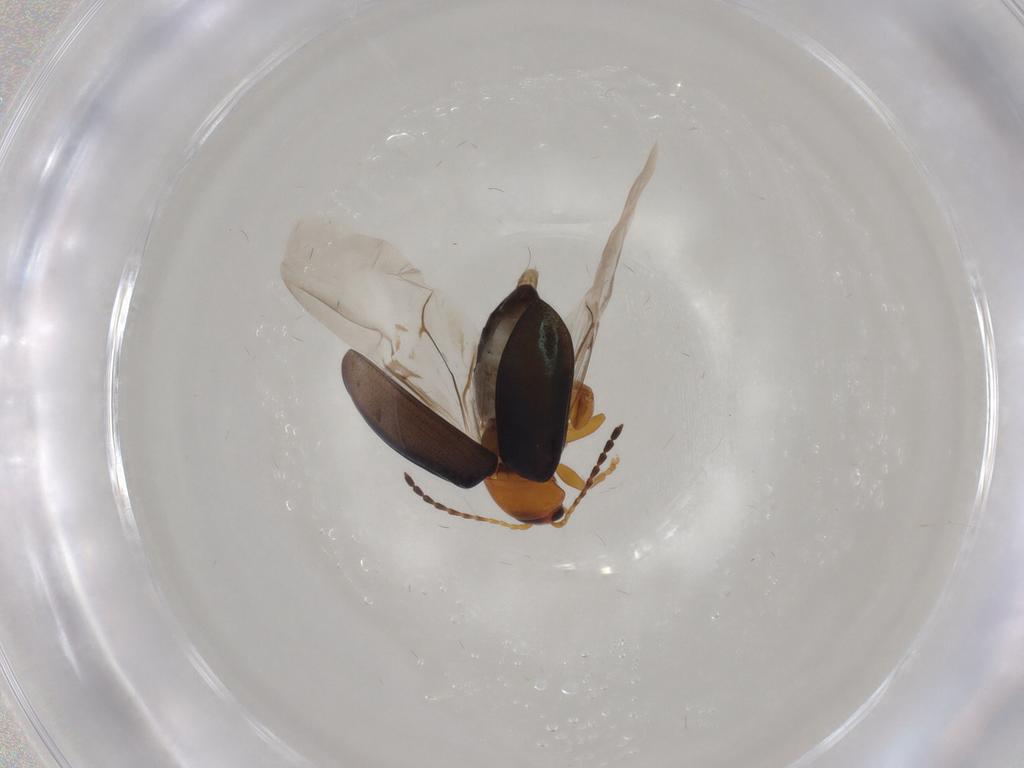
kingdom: Animalia
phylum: Arthropoda
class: Insecta
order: Coleoptera
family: Chrysomelidae
